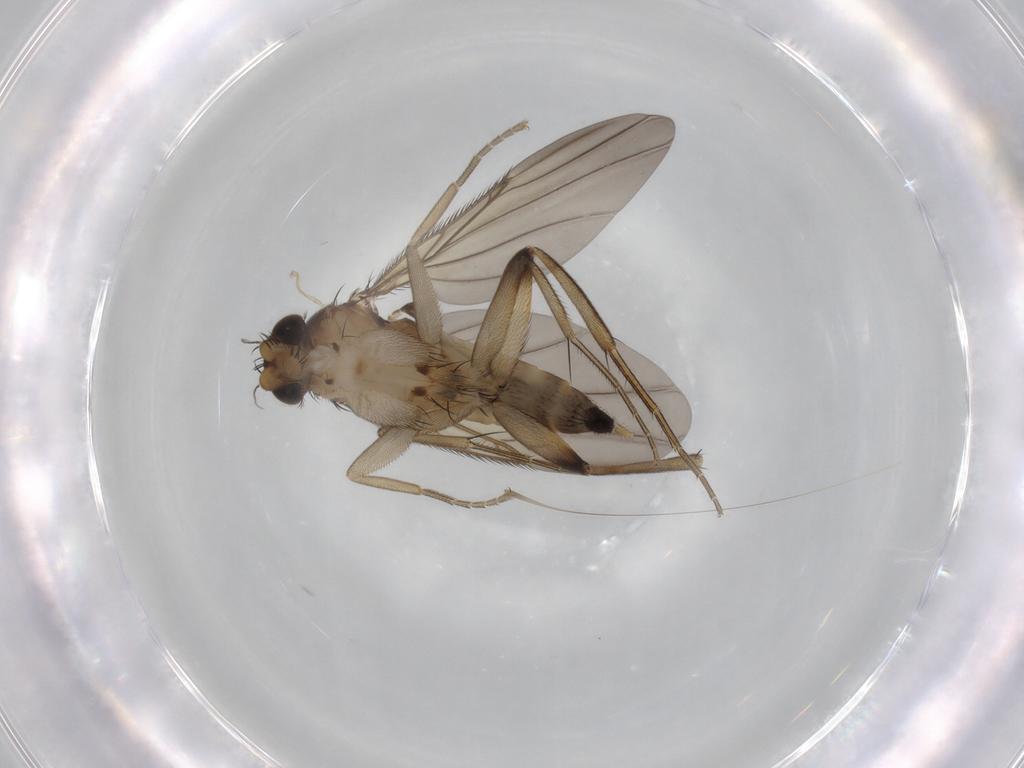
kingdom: Animalia
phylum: Arthropoda
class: Insecta
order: Diptera
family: Phoridae
